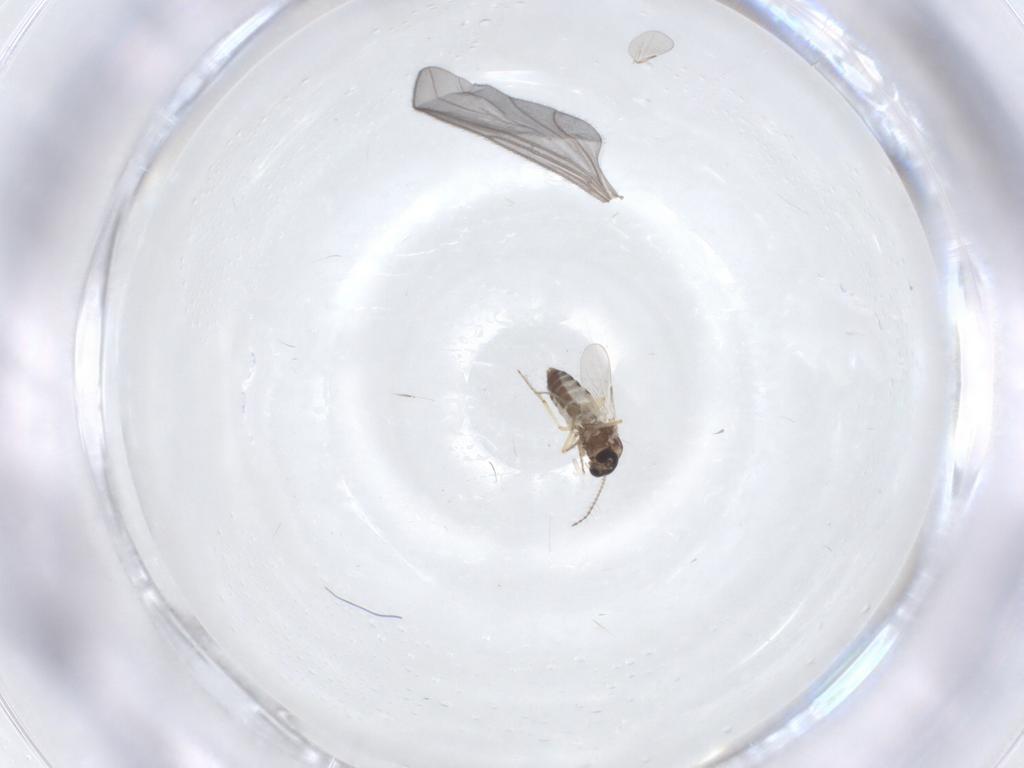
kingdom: Animalia
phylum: Arthropoda
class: Insecta
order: Diptera
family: Ceratopogonidae
